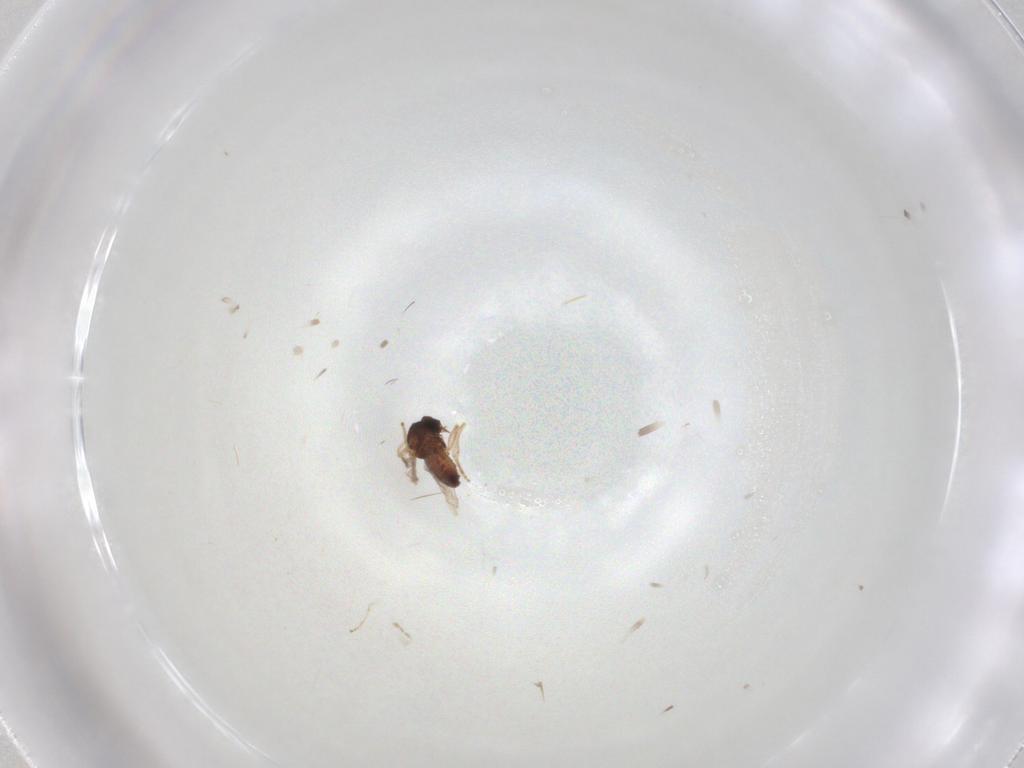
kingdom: Animalia
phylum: Arthropoda
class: Insecta
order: Diptera
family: Ceratopogonidae
